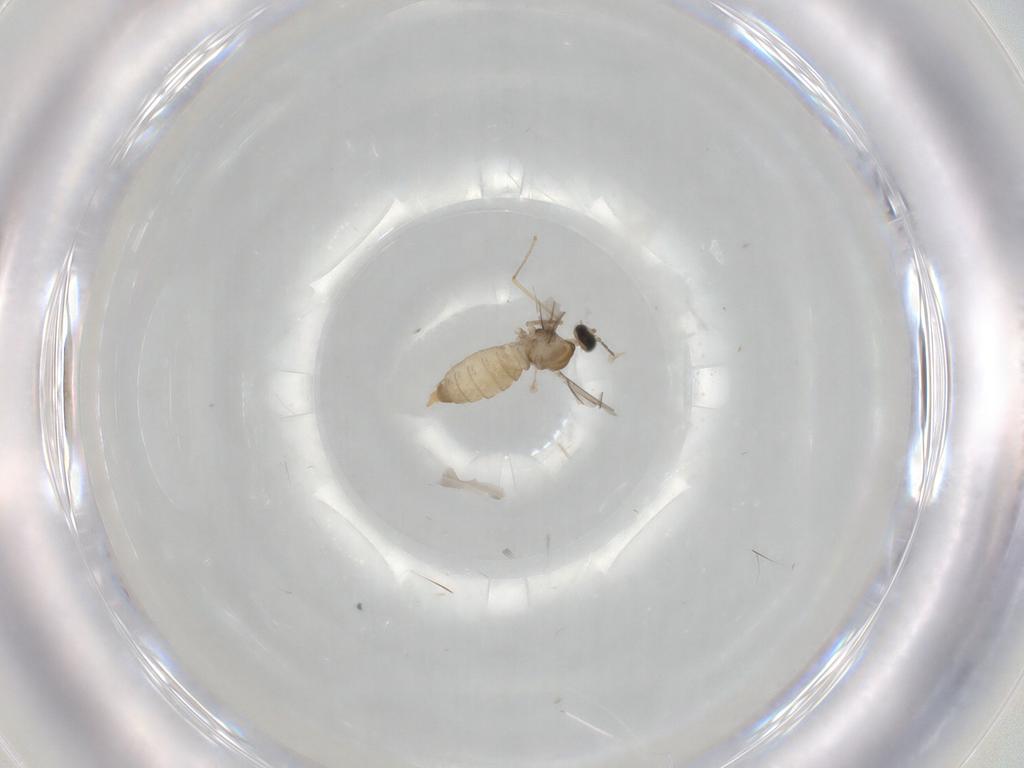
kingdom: Animalia
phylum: Arthropoda
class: Insecta
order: Diptera
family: Cecidomyiidae
